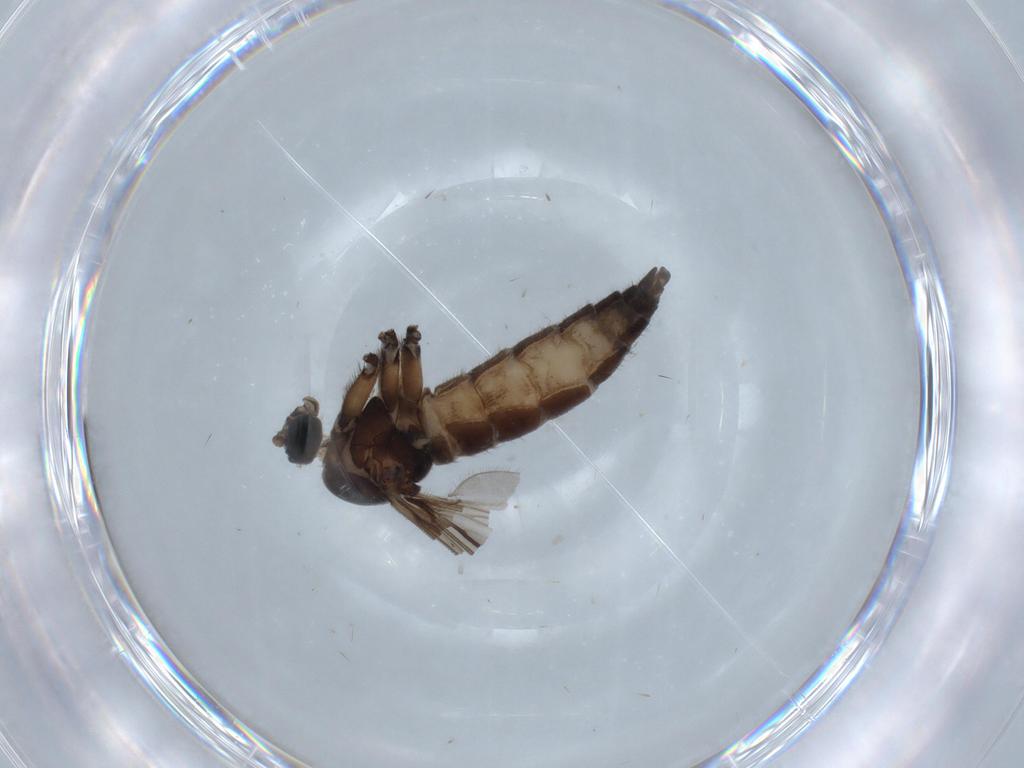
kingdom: Animalia
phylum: Arthropoda
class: Insecta
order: Diptera
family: Sciaridae
